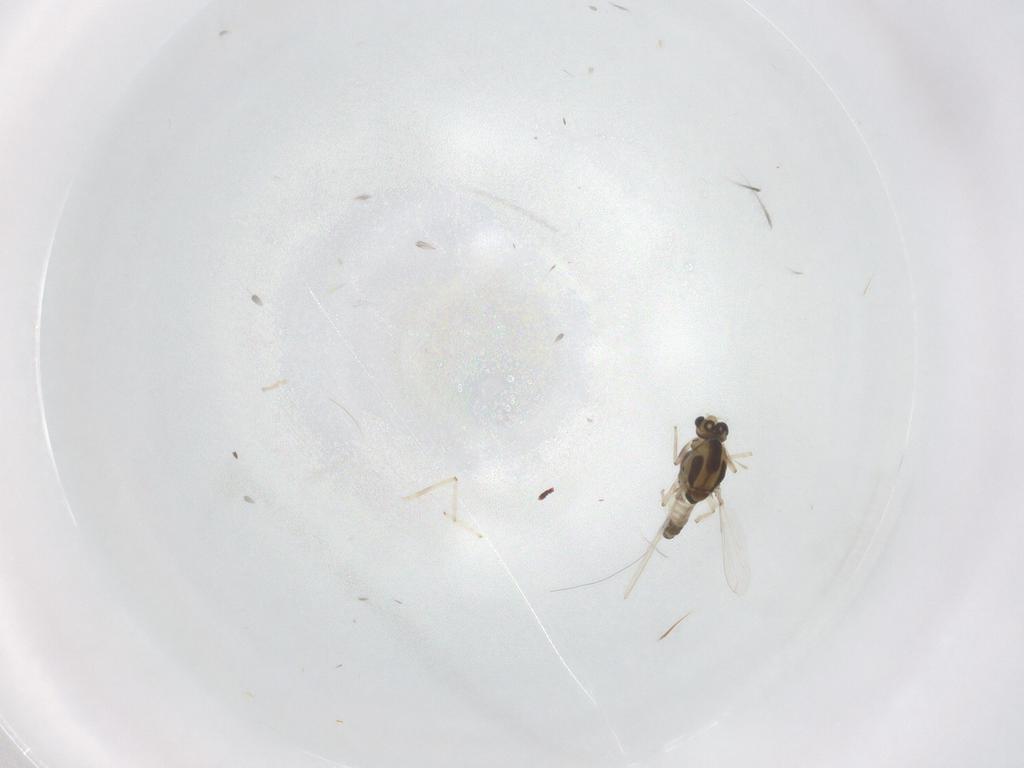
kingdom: Animalia
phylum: Arthropoda
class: Insecta
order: Diptera
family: Chironomidae
